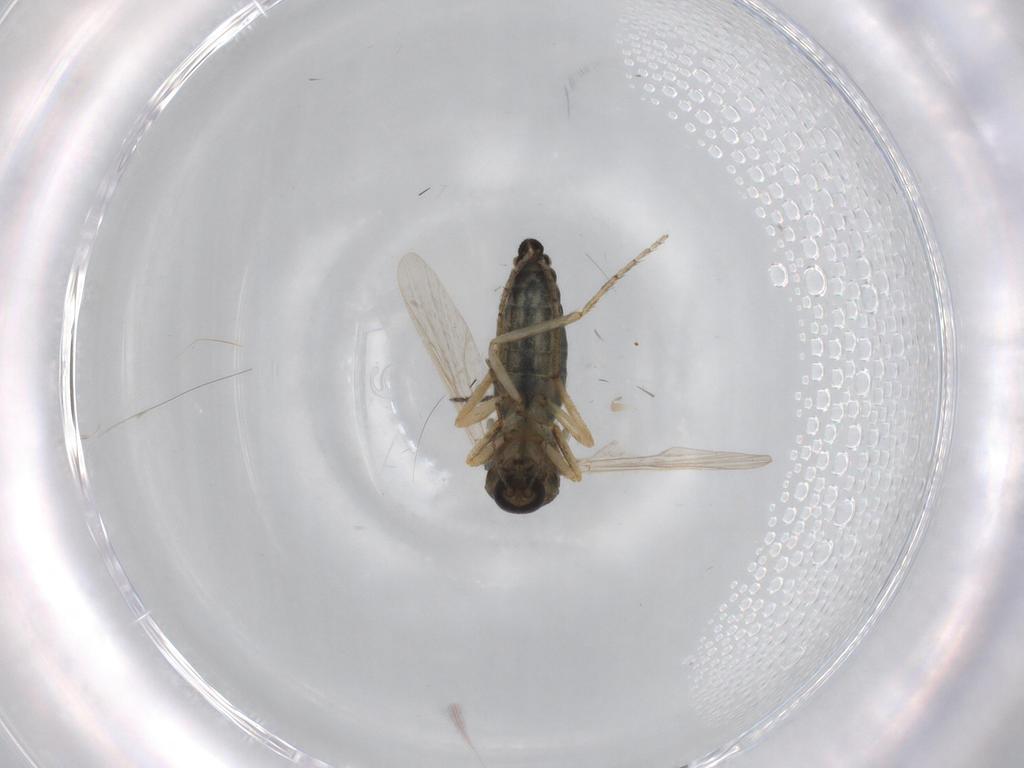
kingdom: Animalia
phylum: Arthropoda
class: Insecta
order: Diptera
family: Ceratopogonidae
